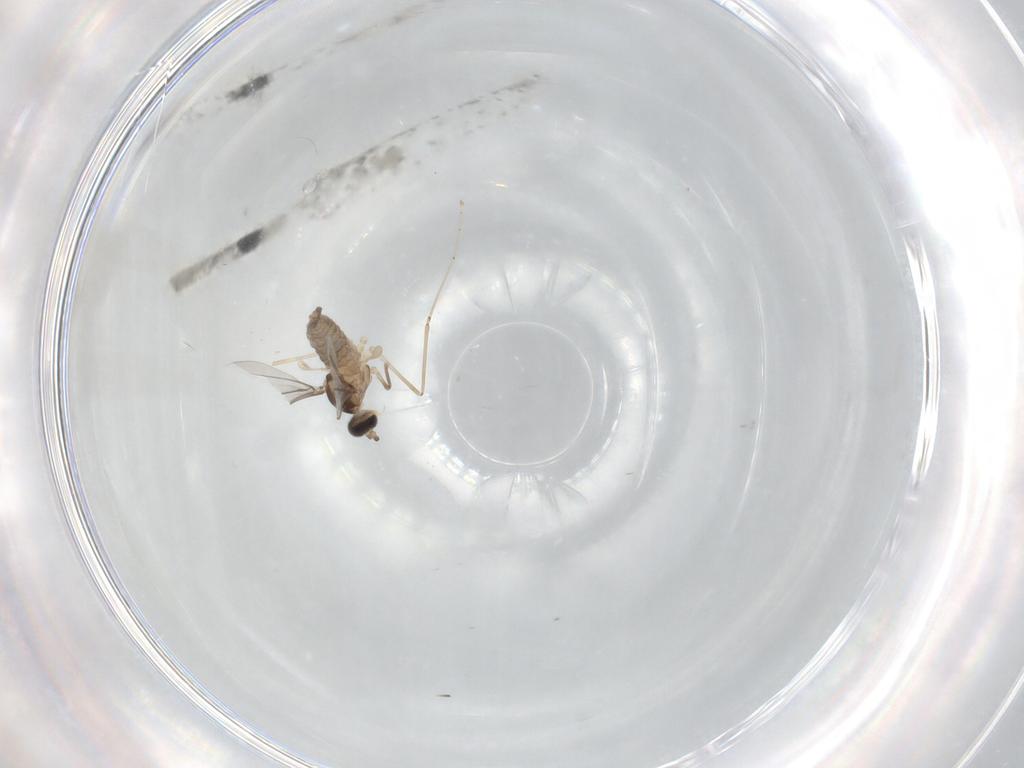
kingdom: Animalia
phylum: Arthropoda
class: Insecta
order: Diptera
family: Cecidomyiidae
